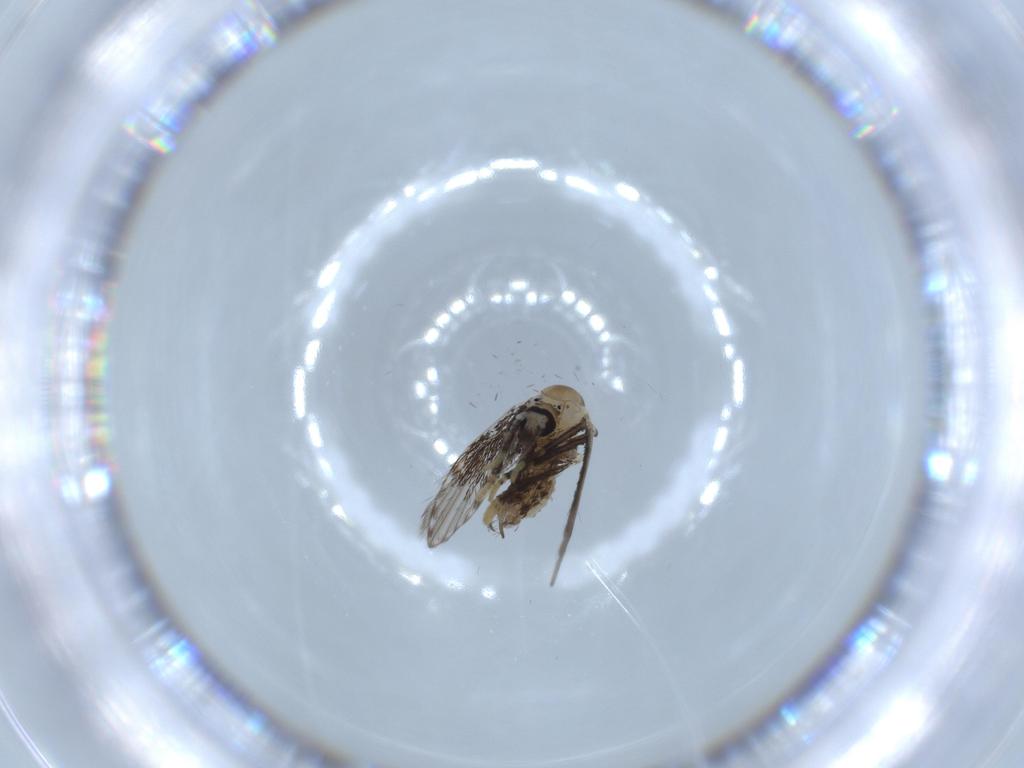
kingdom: Animalia
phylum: Arthropoda
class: Insecta
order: Diptera
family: Psychodidae
